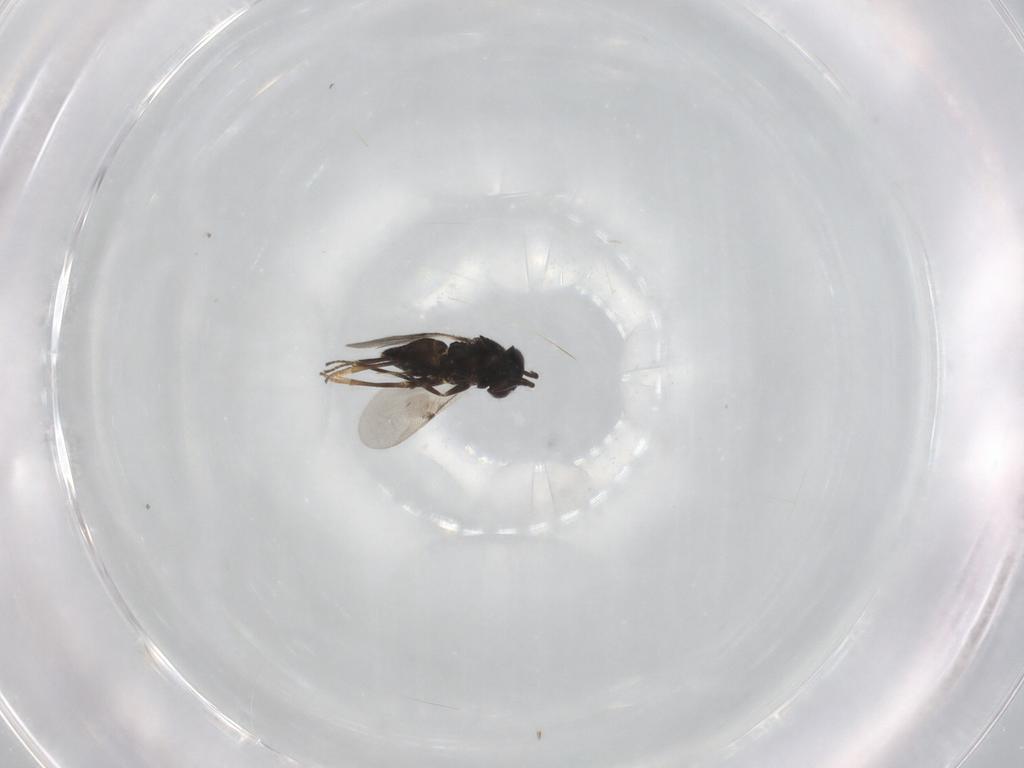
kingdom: Animalia
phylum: Arthropoda
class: Insecta
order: Hymenoptera
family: Encyrtidae
